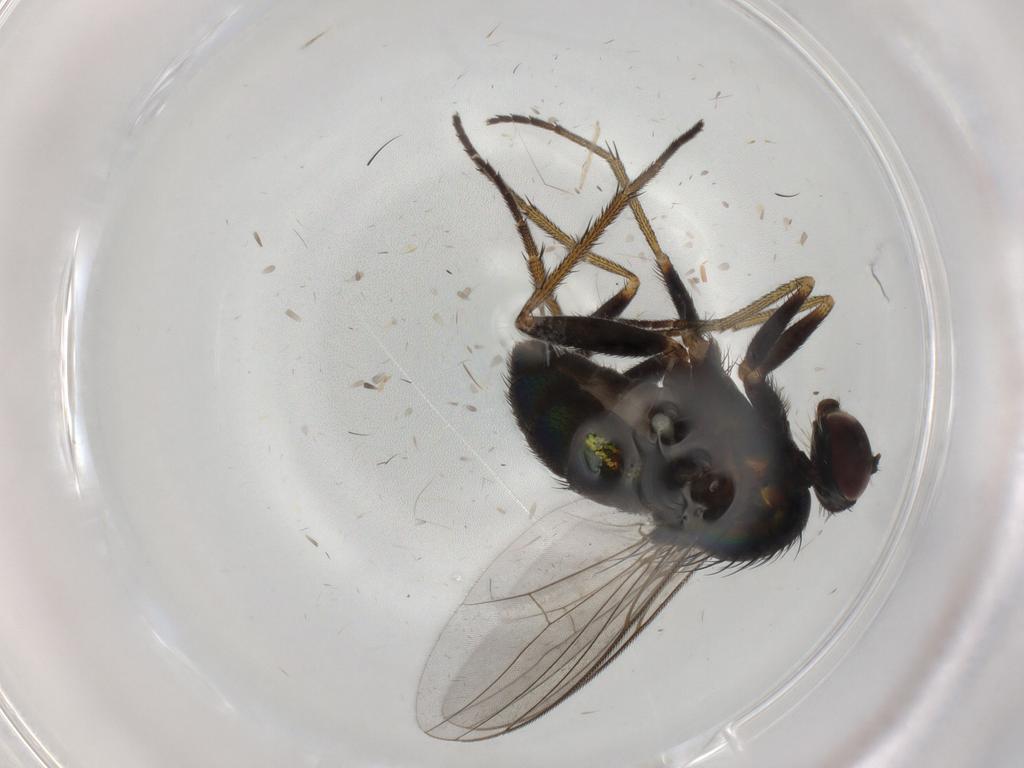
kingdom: Animalia
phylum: Arthropoda
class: Insecta
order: Diptera
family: Dolichopodidae
